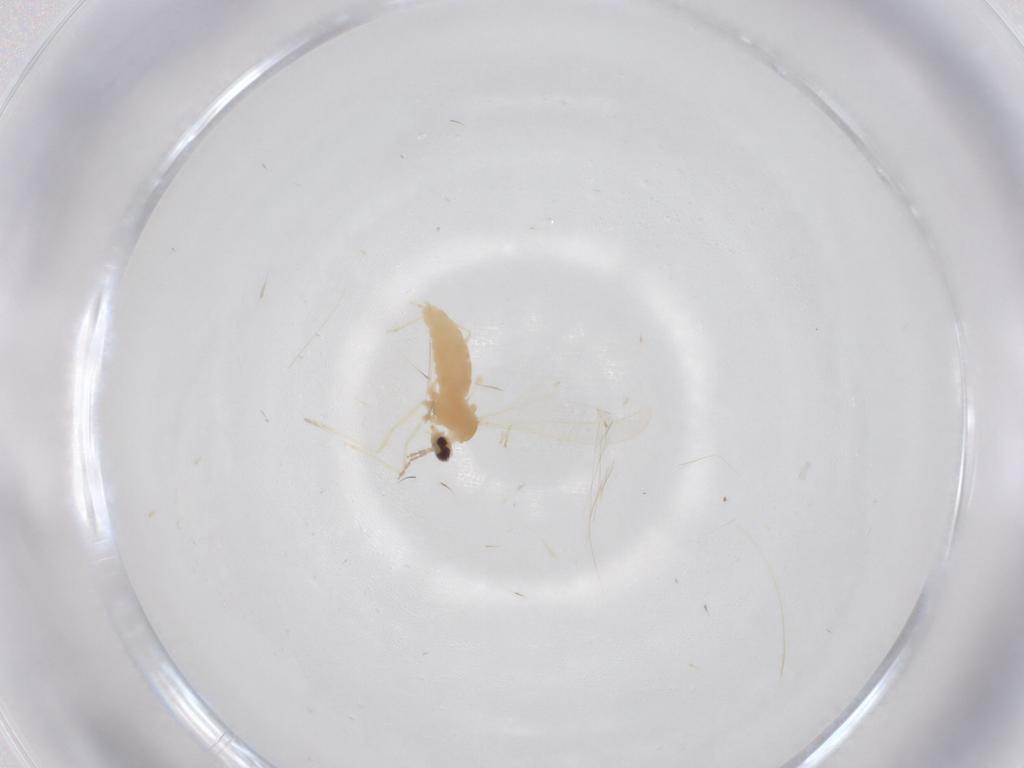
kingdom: Animalia
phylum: Arthropoda
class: Insecta
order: Diptera
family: Cecidomyiidae
